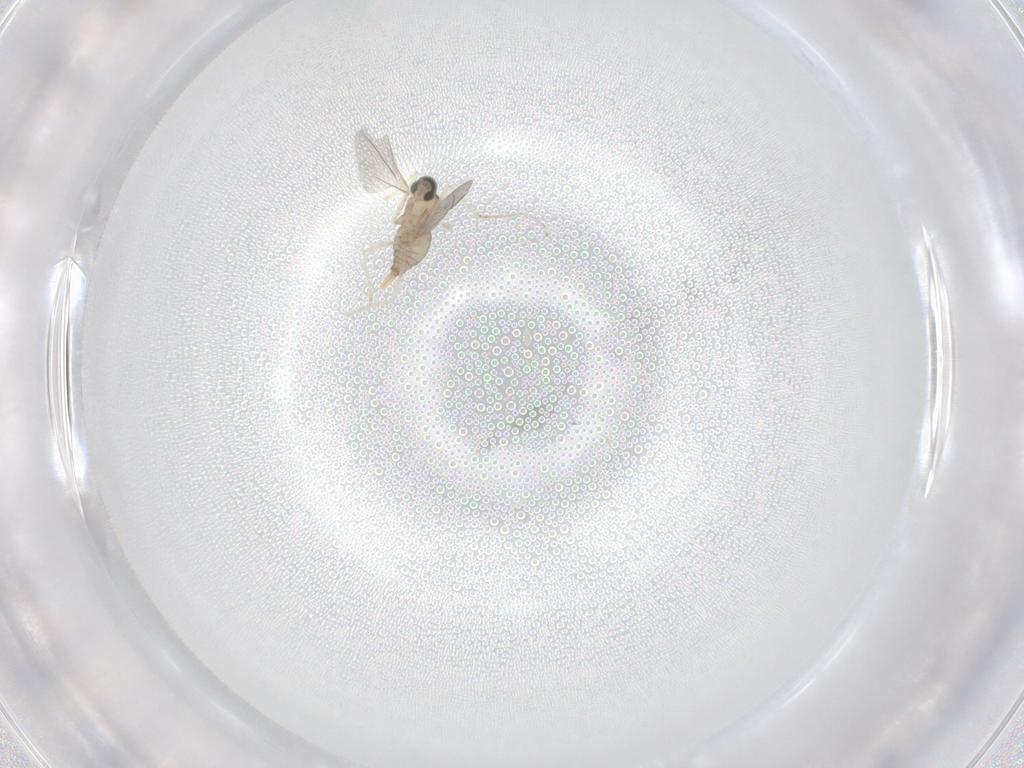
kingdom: Animalia
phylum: Arthropoda
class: Insecta
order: Diptera
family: Cecidomyiidae
